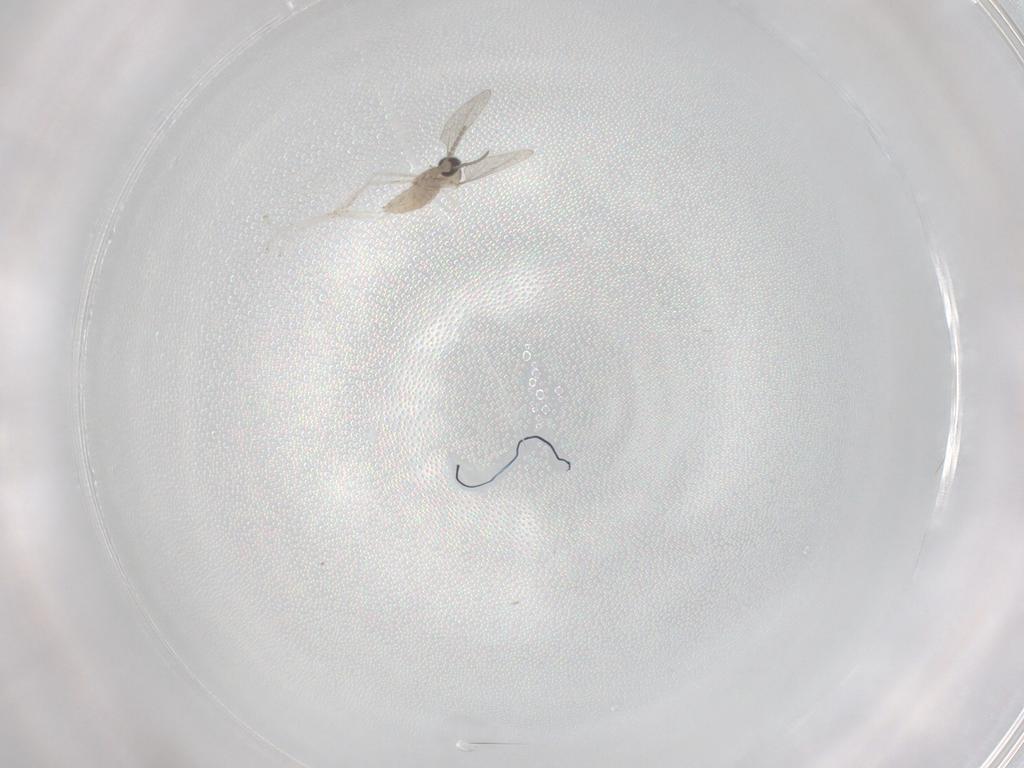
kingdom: Animalia
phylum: Arthropoda
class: Insecta
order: Diptera
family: Cecidomyiidae
